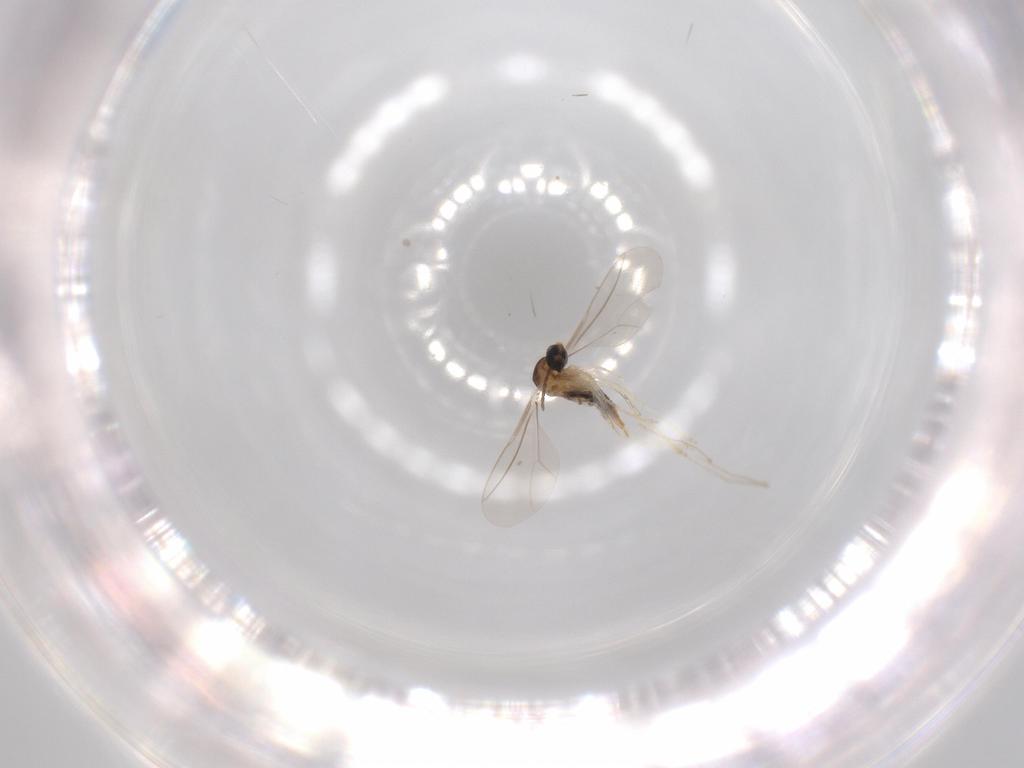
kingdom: Animalia
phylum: Arthropoda
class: Insecta
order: Diptera
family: Cecidomyiidae
